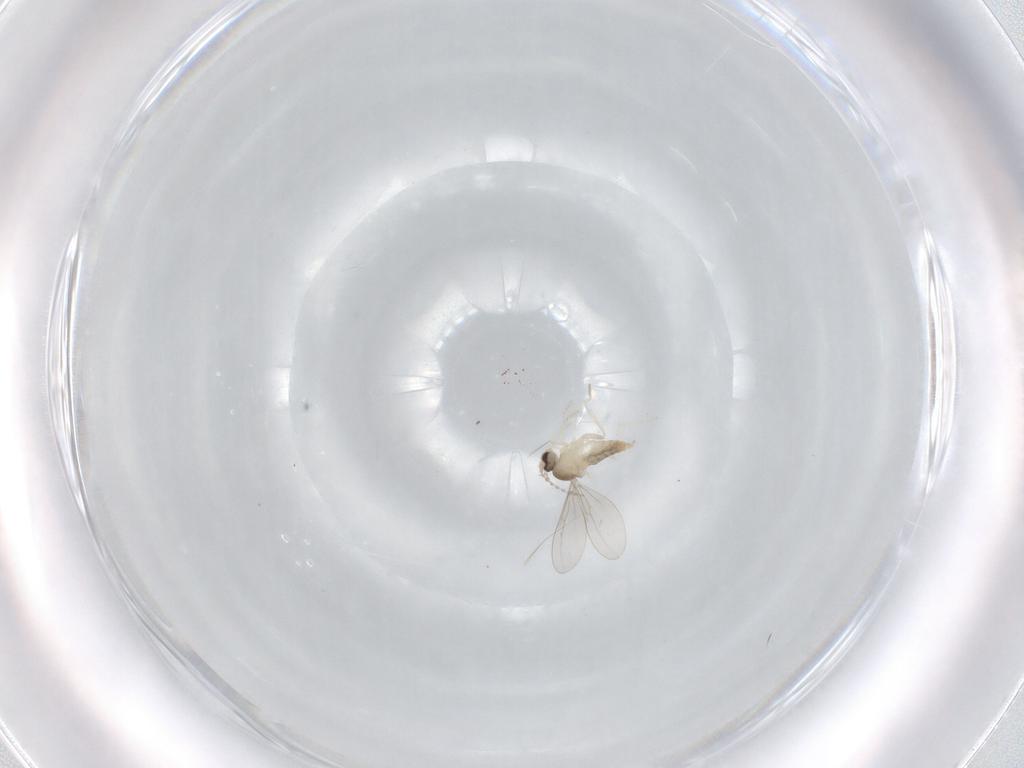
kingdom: Animalia
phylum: Arthropoda
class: Insecta
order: Diptera
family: Cecidomyiidae
